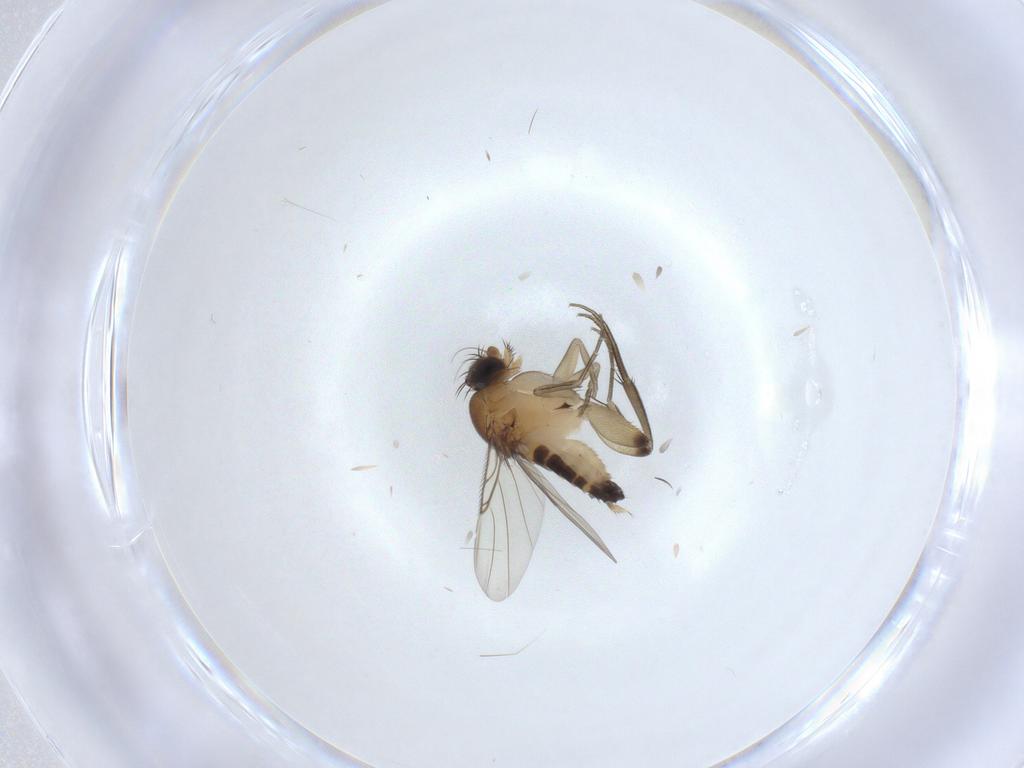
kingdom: Animalia
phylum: Arthropoda
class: Insecta
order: Diptera
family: Phoridae
